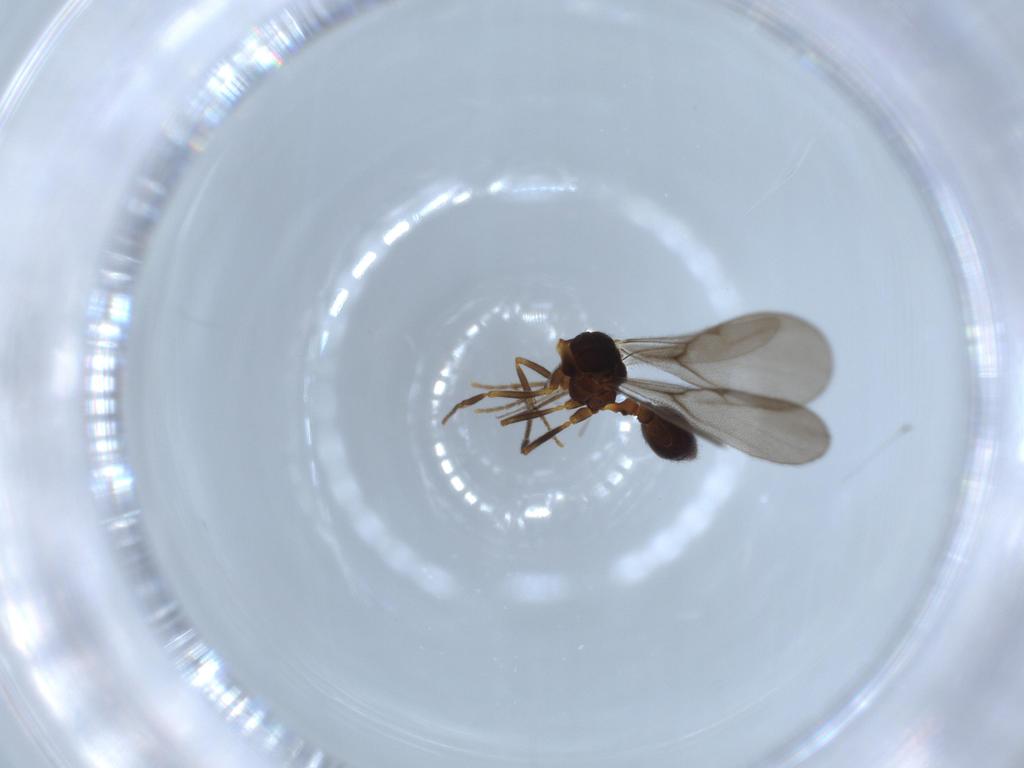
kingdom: Animalia
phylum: Arthropoda
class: Insecta
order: Hymenoptera
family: Formicidae
